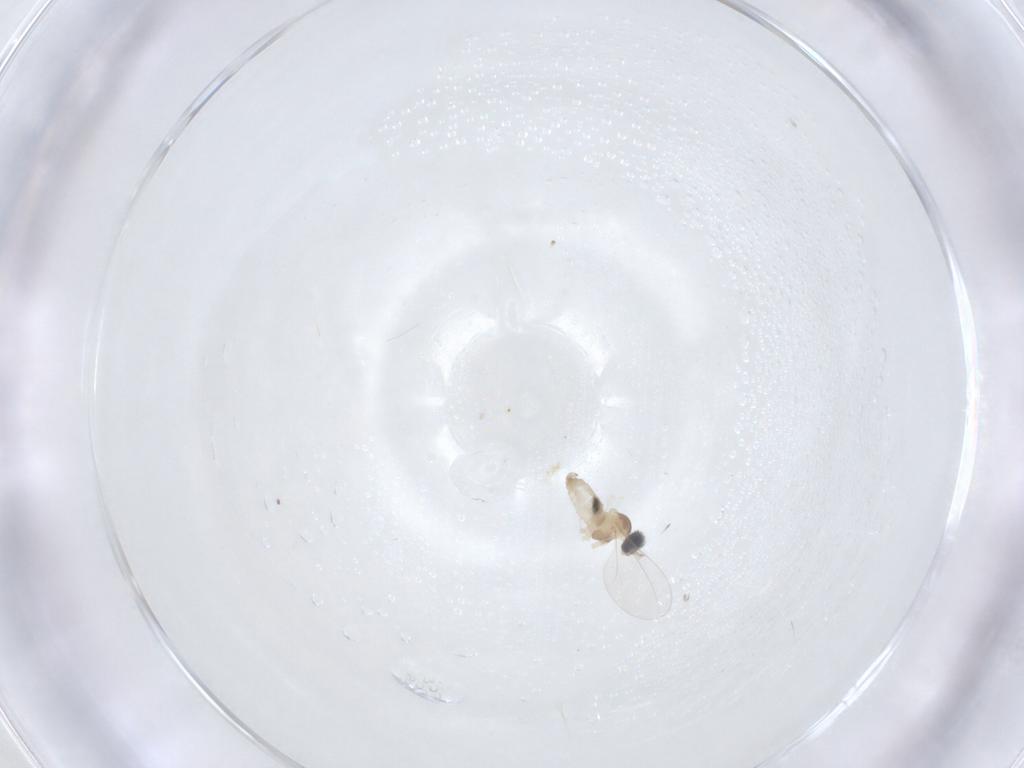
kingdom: Animalia
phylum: Arthropoda
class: Insecta
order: Diptera
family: Cecidomyiidae
